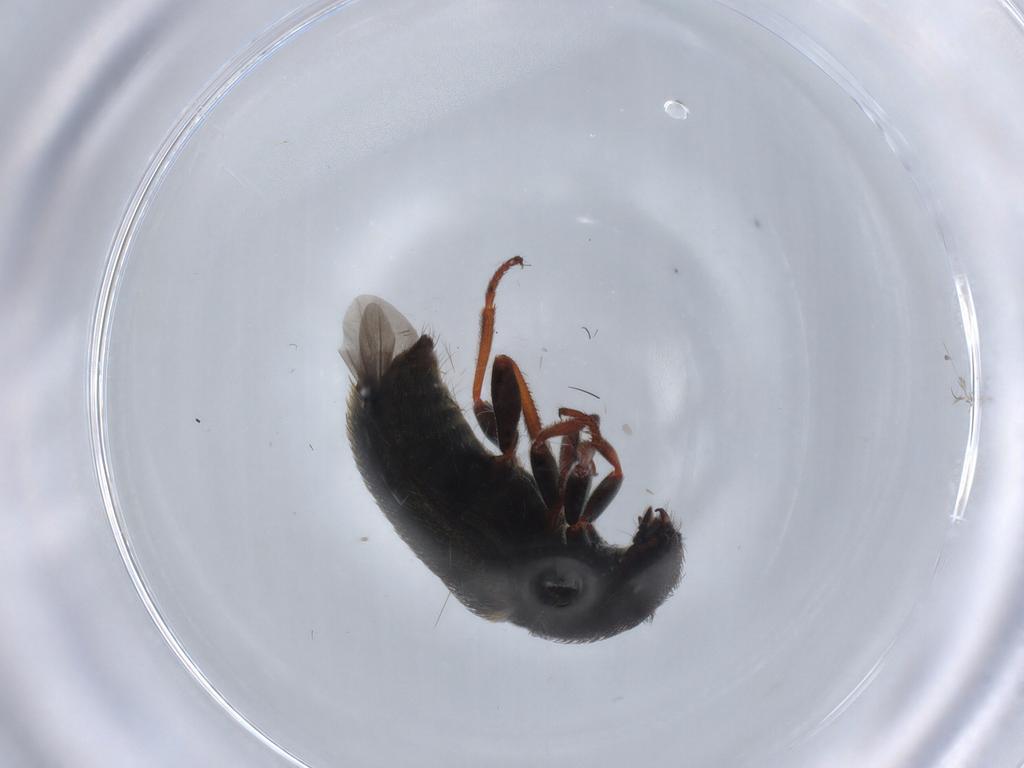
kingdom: Animalia
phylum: Arthropoda
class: Insecta
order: Coleoptera
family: Melyridae
